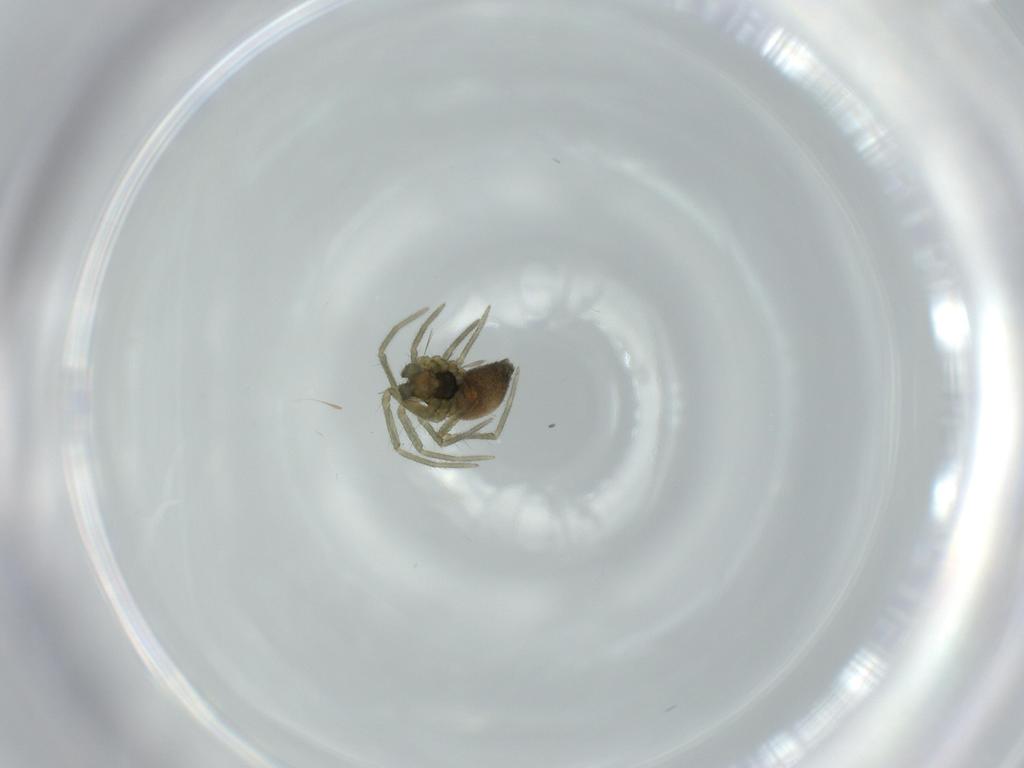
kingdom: Animalia
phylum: Arthropoda
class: Arachnida
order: Araneae
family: Linyphiidae
